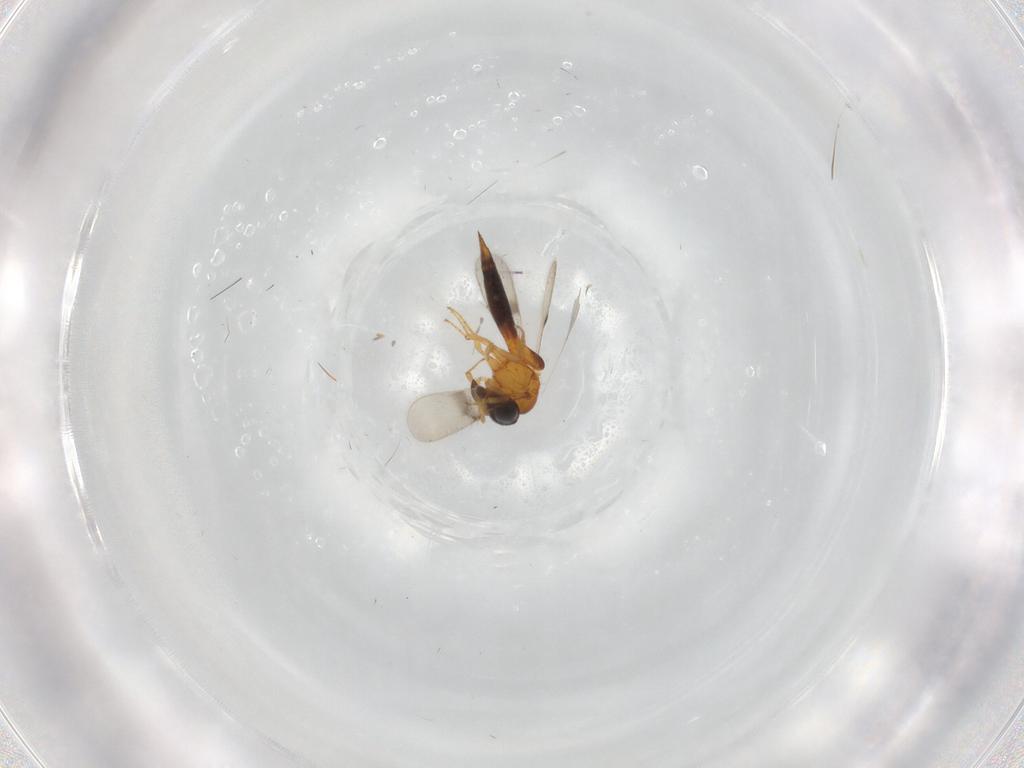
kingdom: Animalia
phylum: Arthropoda
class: Insecta
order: Hymenoptera
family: Scelionidae
